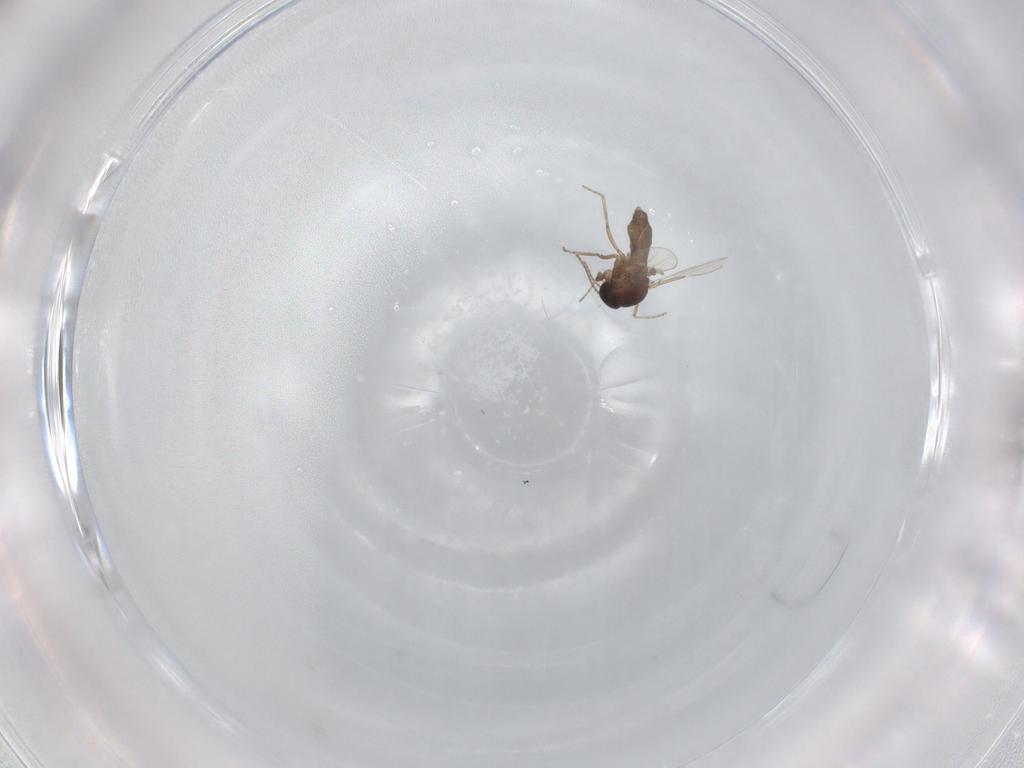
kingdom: Animalia
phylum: Arthropoda
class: Insecta
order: Diptera
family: Ceratopogonidae
